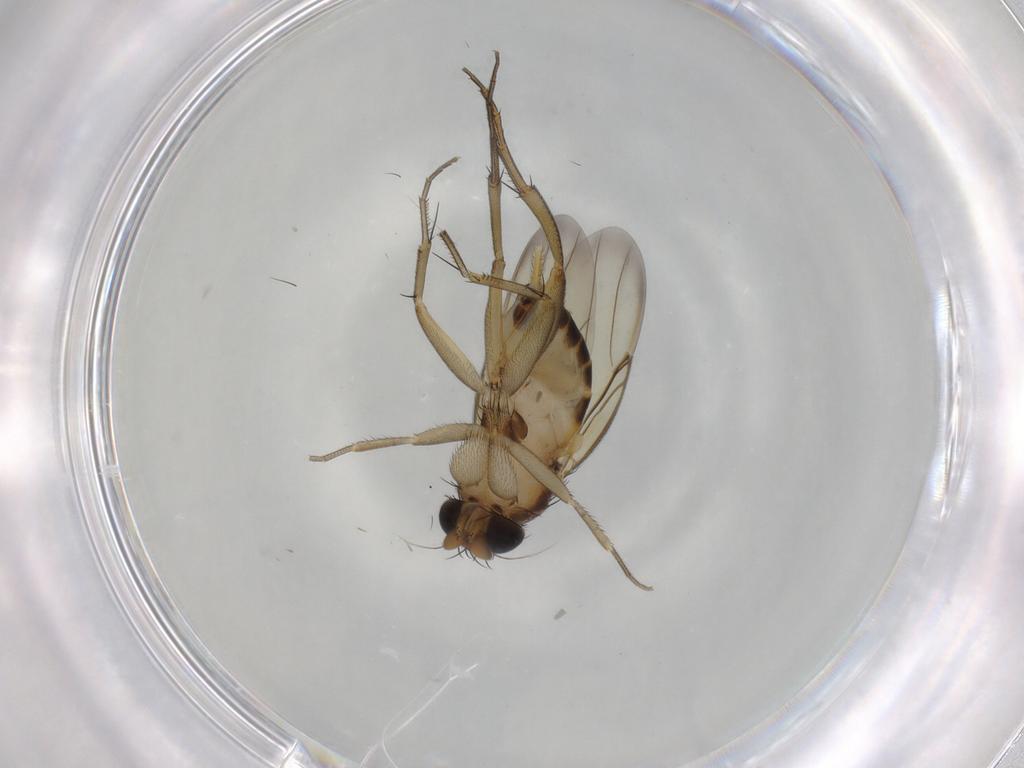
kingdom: Animalia
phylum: Arthropoda
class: Insecta
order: Diptera
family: Phoridae
